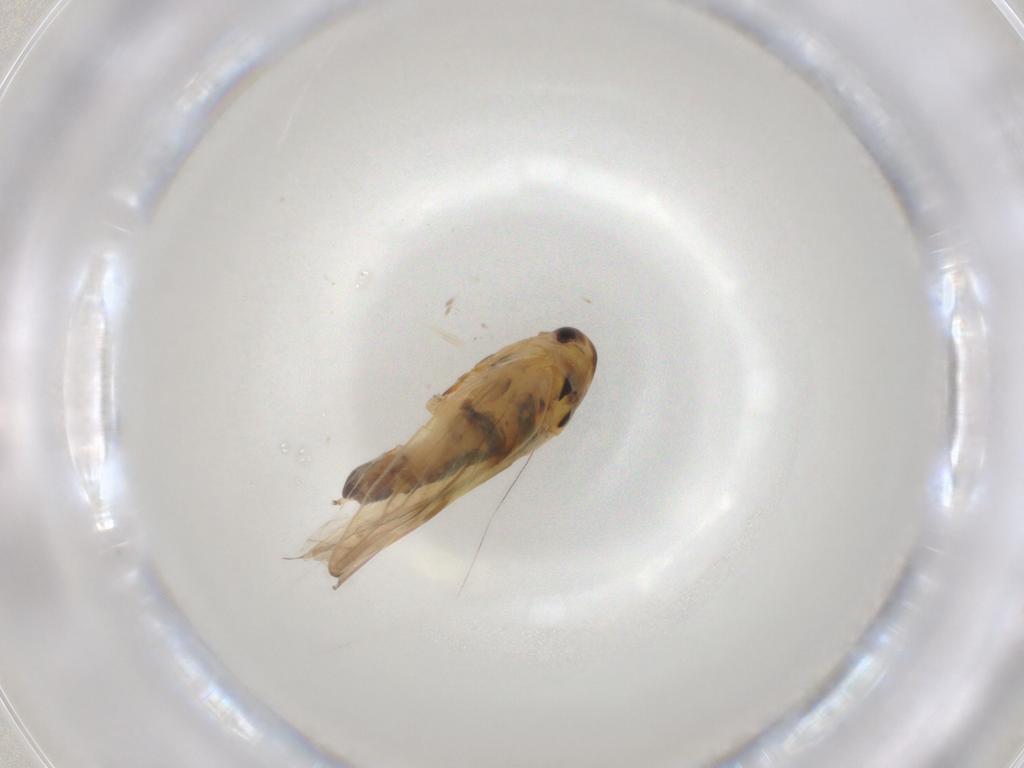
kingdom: Animalia
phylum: Arthropoda
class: Insecta
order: Hemiptera
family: Cicadellidae
